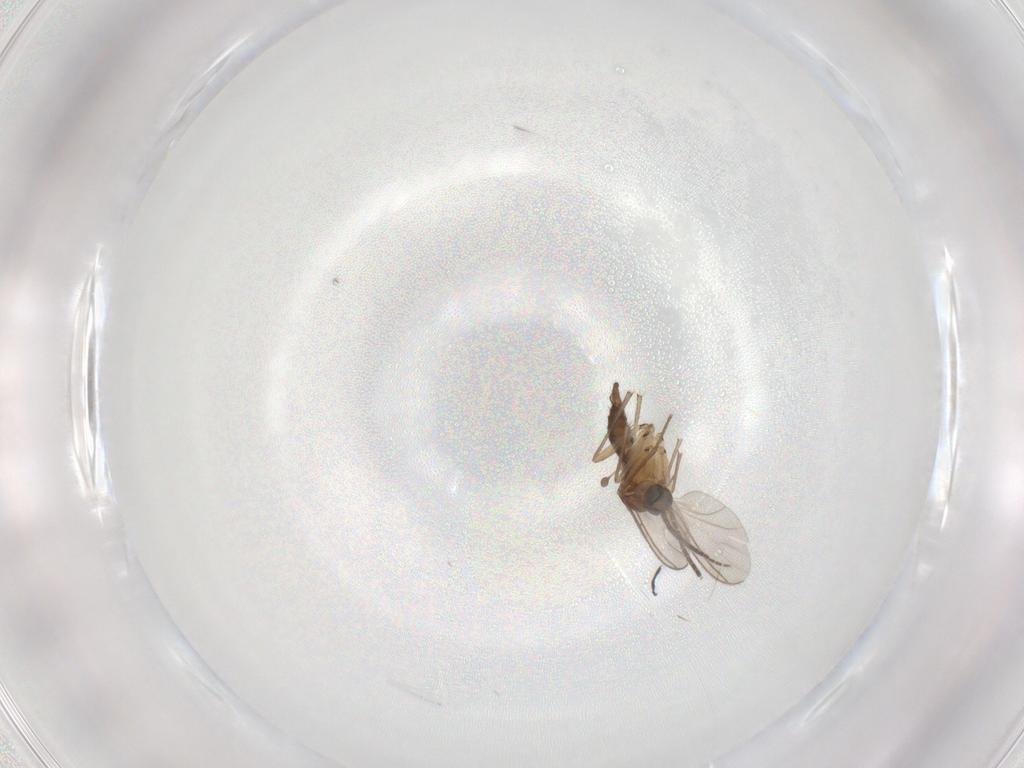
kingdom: Animalia
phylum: Arthropoda
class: Insecta
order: Diptera
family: Sciaridae
